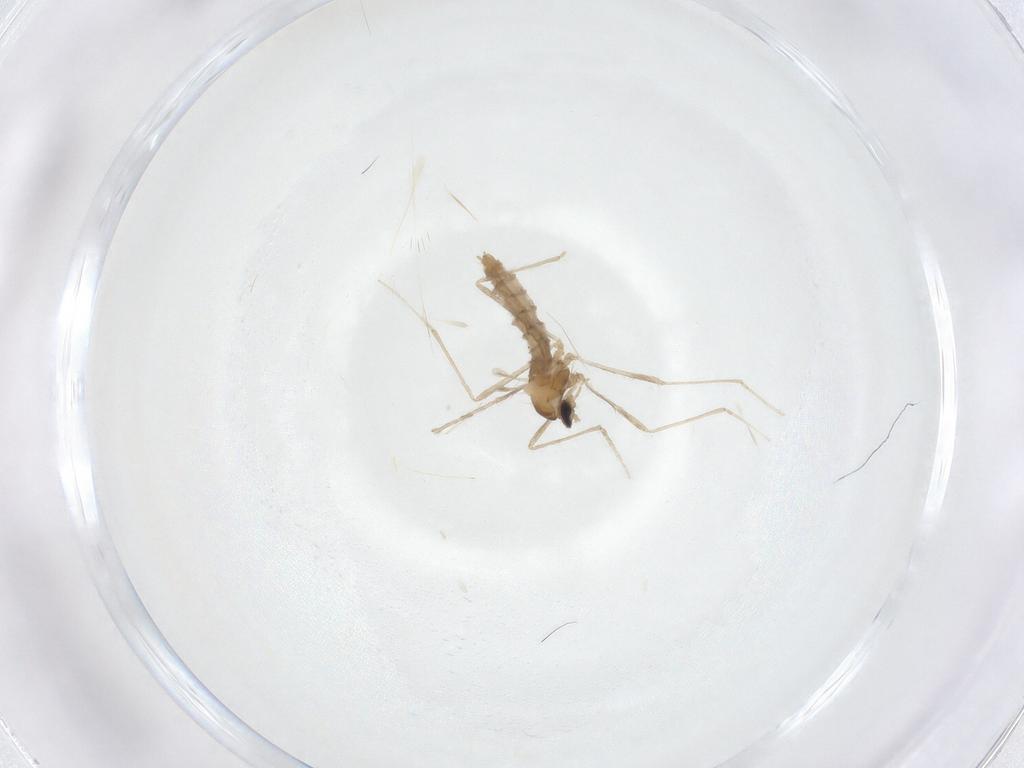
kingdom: Animalia
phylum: Arthropoda
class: Insecta
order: Diptera
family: Cecidomyiidae
